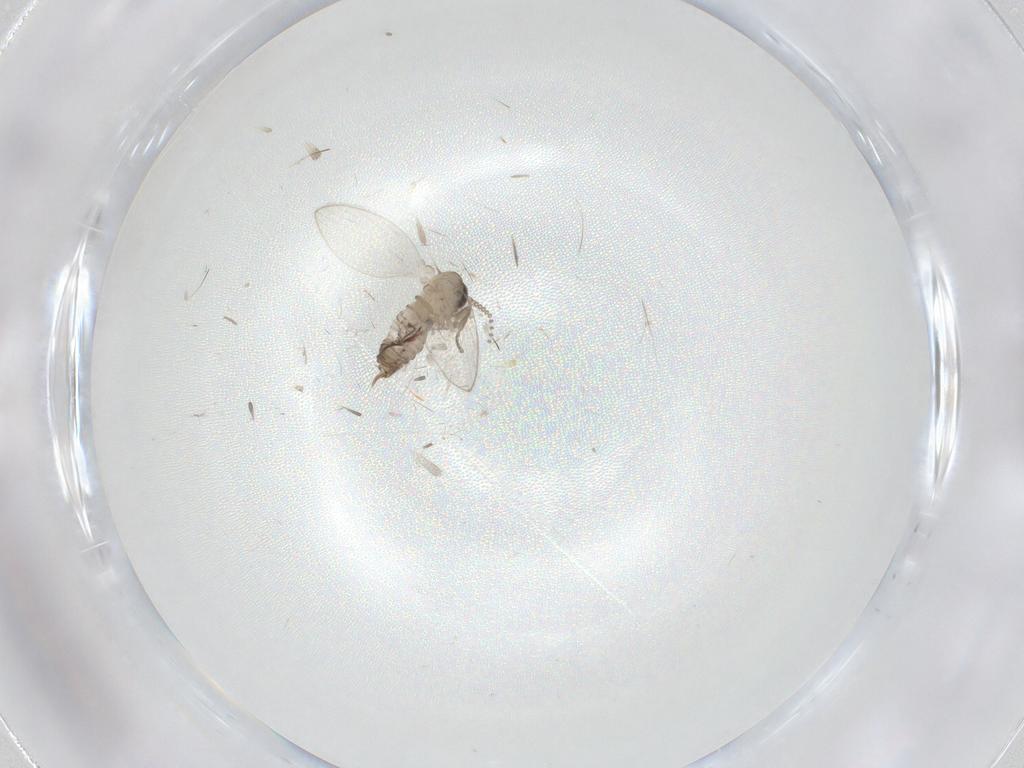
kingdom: Animalia
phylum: Arthropoda
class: Insecta
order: Diptera
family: Psychodidae
